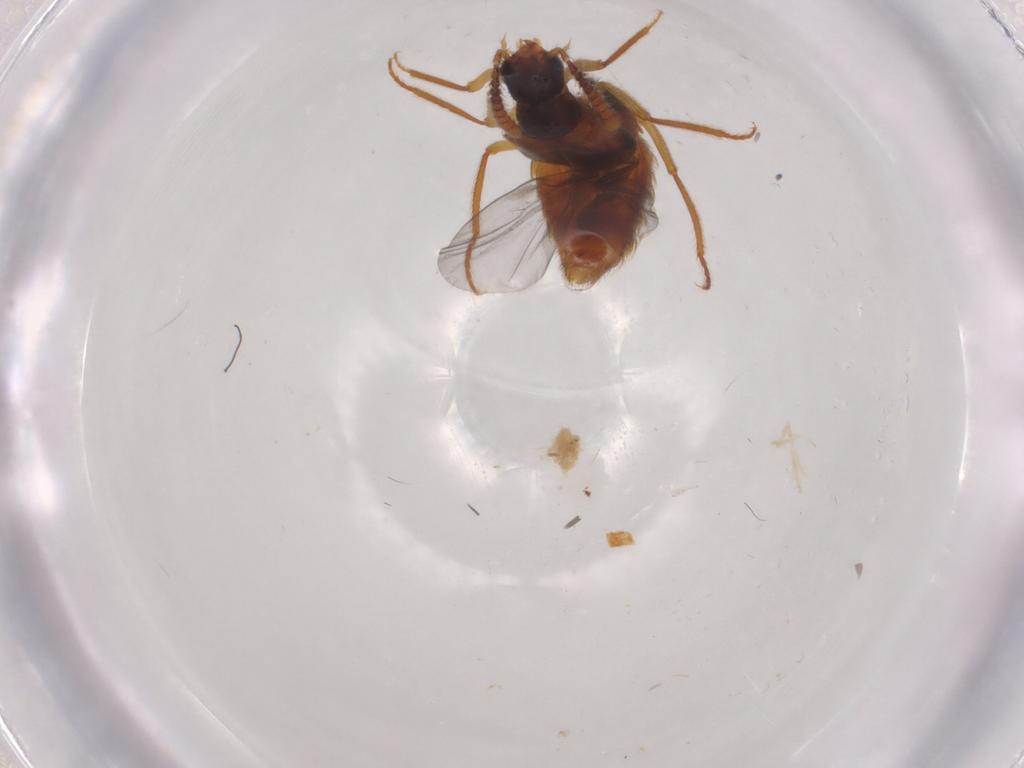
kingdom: Animalia
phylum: Arthropoda
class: Insecta
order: Coleoptera
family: Staphylinidae
